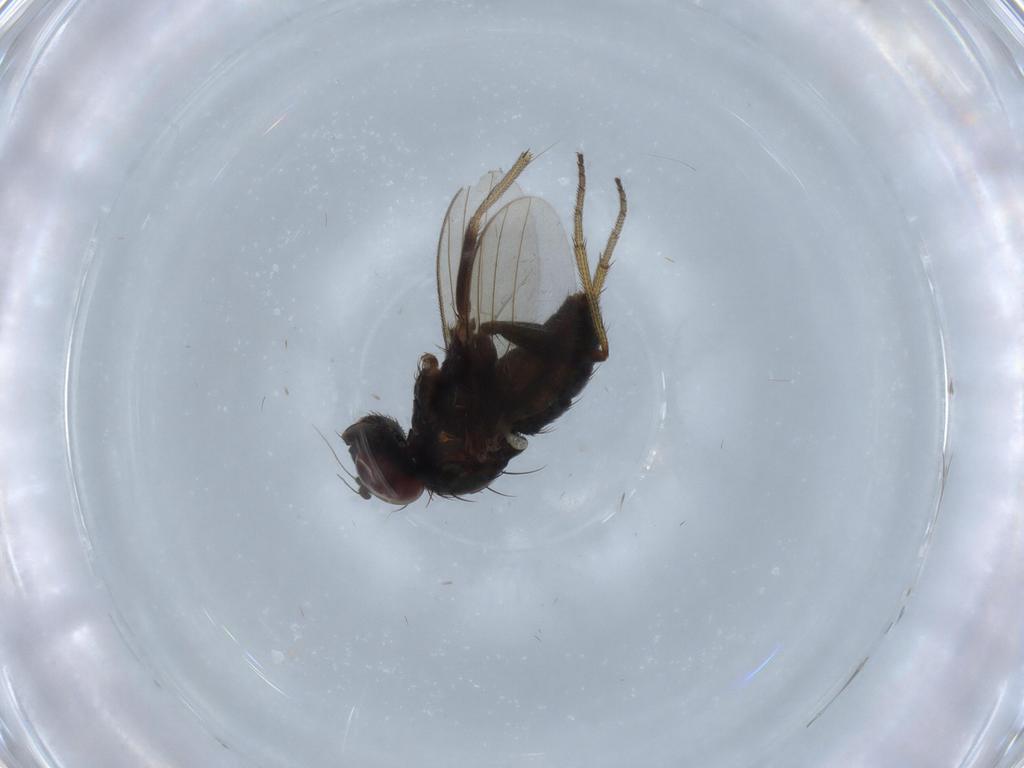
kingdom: Animalia
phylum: Arthropoda
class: Insecta
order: Diptera
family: Dolichopodidae
